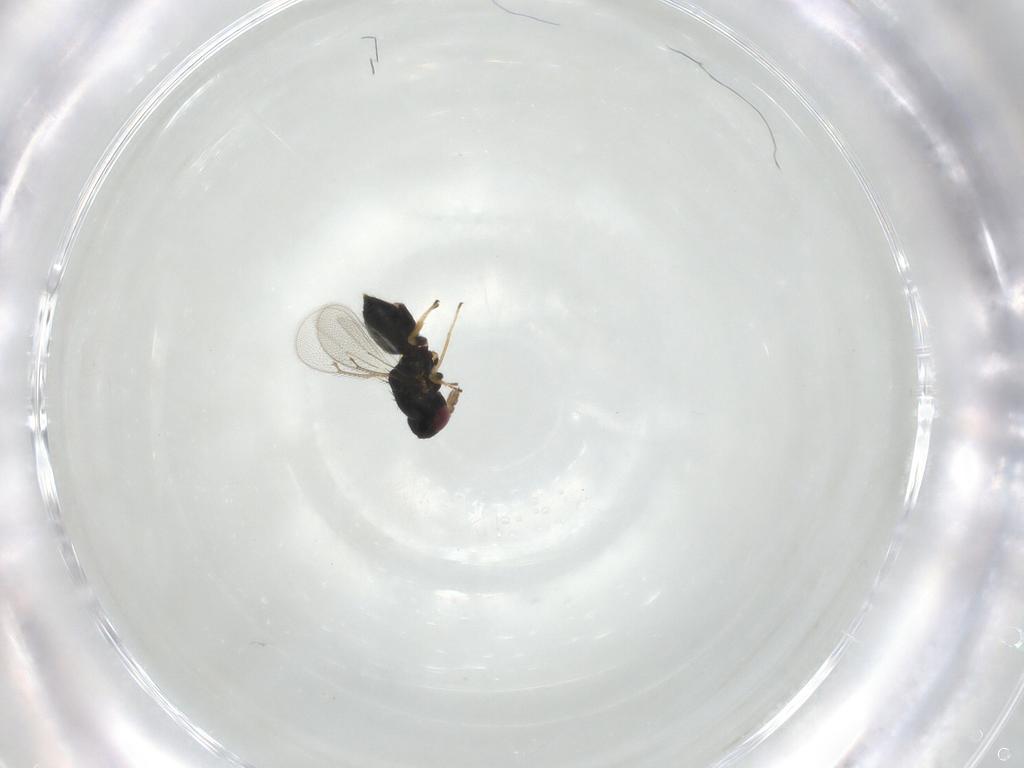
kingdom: Animalia
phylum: Arthropoda
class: Insecta
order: Hymenoptera
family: Eulophidae
